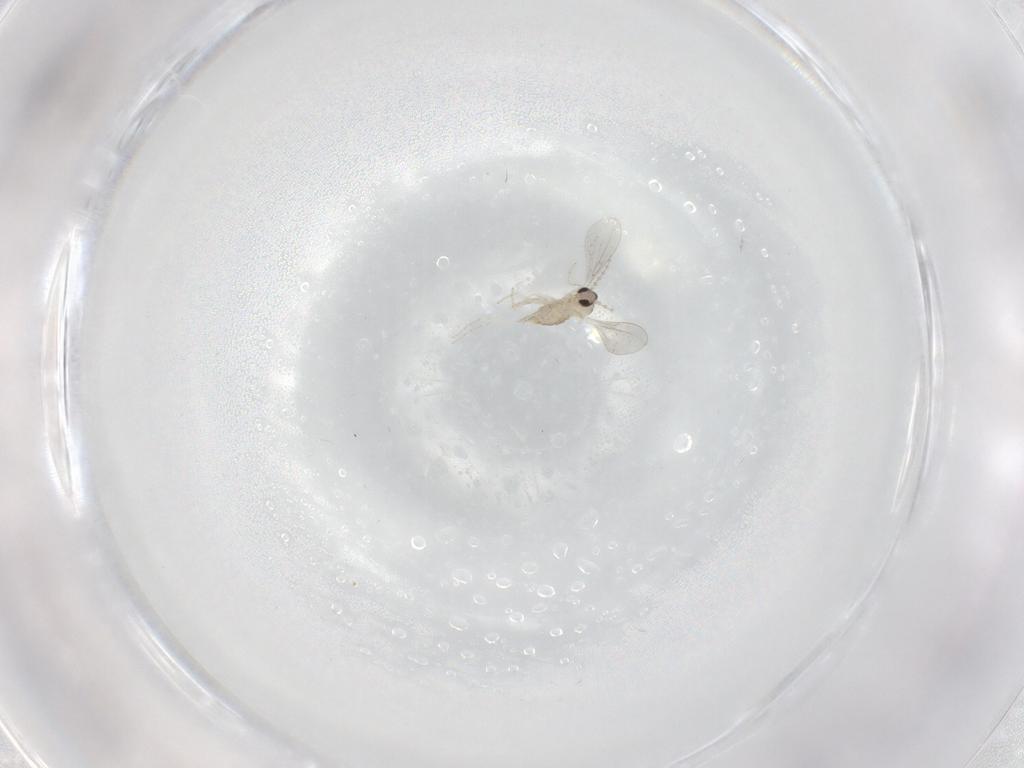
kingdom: Animalia
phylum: Arthropoda
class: Insecta
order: Diptera
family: Cecidomyiidae
